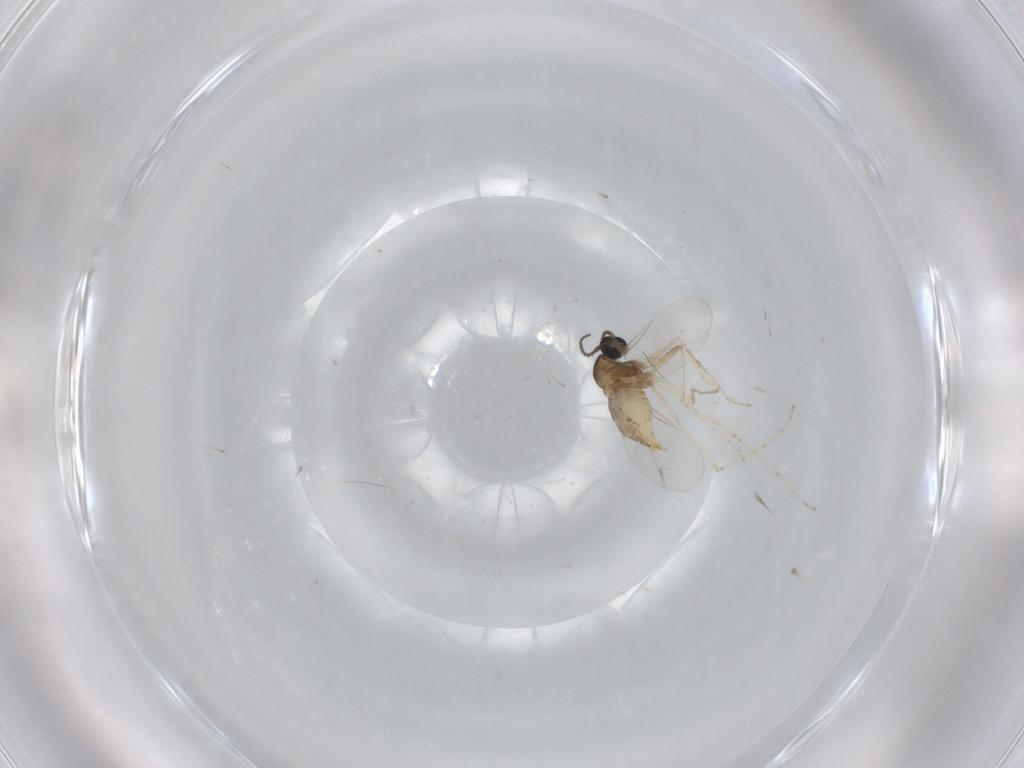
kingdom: Animalia
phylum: Arthropoda
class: Insecta
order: Diptera
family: Cecidomyiidae
